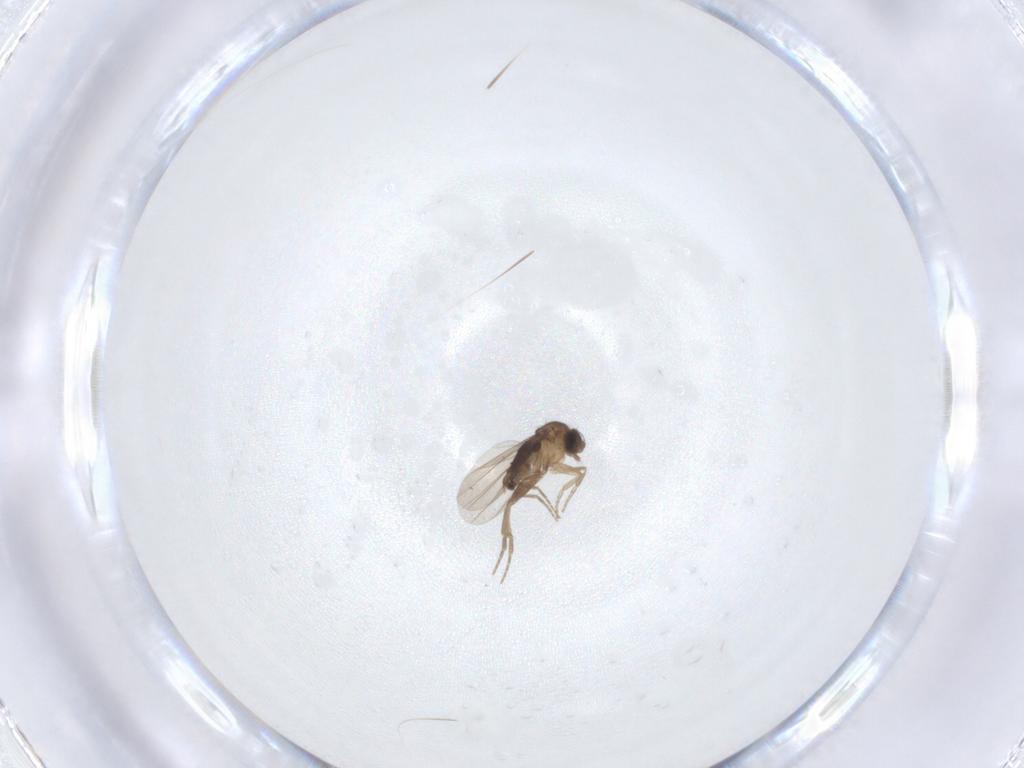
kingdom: Animalia
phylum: Arthropoda
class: Insecta
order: Diptera
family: Phoridae
